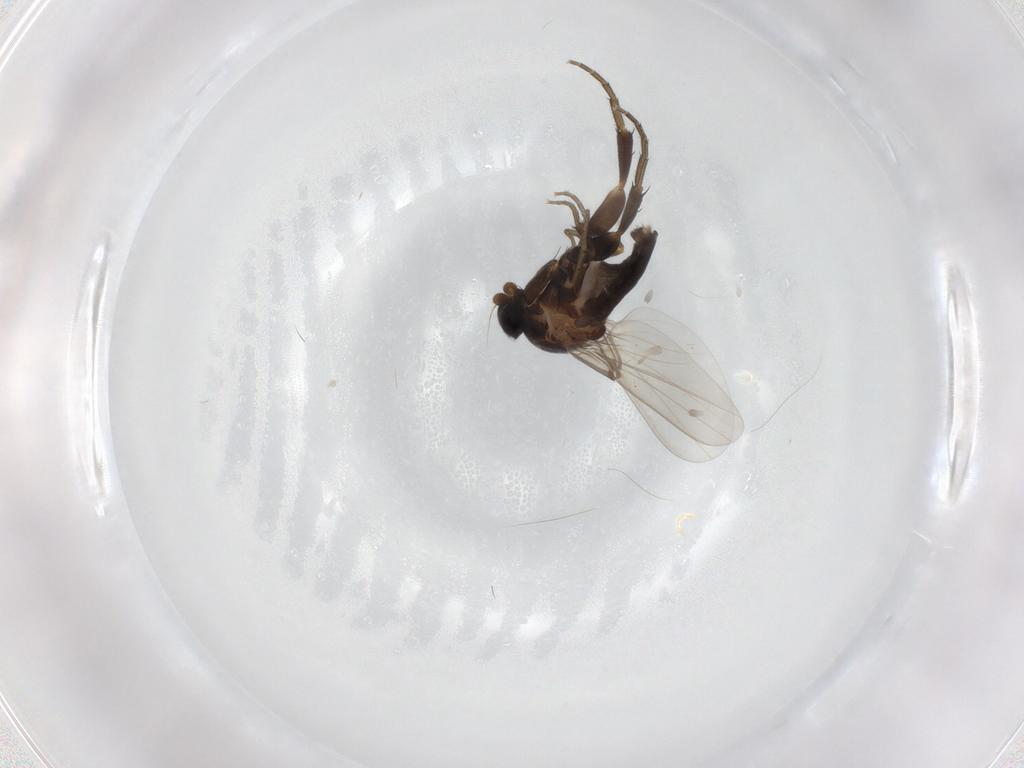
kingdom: Animalia
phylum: Arthropoda
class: Insecta
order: Diptera
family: Phoridae
